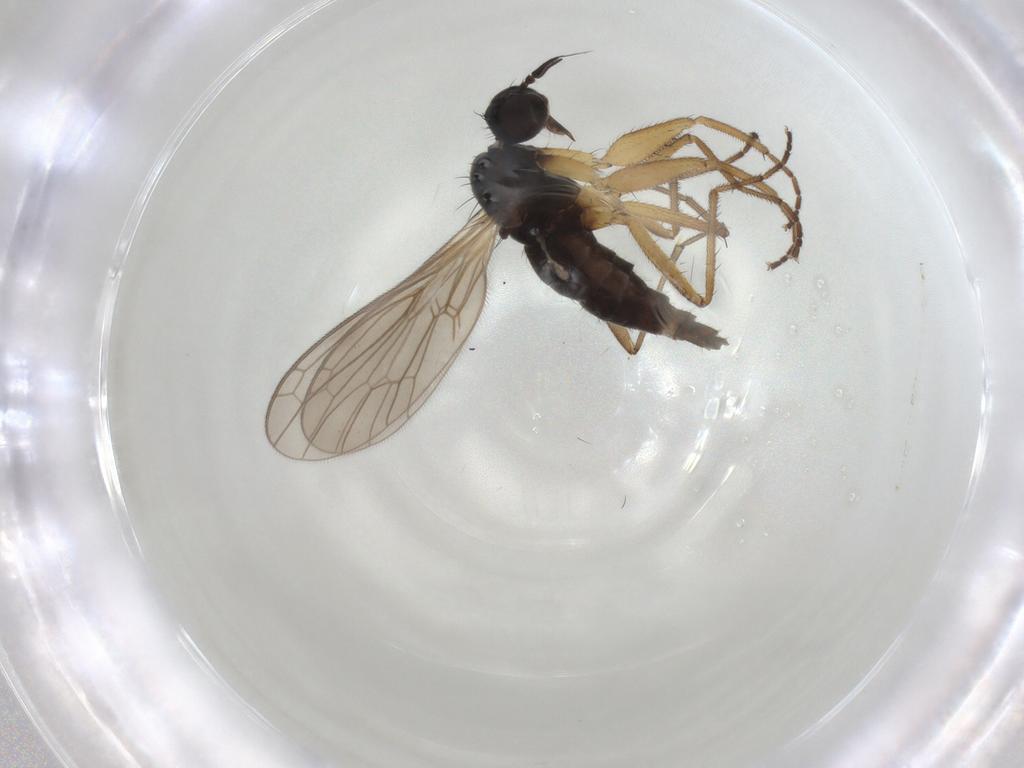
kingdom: Animalia
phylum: Arthropoda
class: Insecta
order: Diptera
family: Empididae
